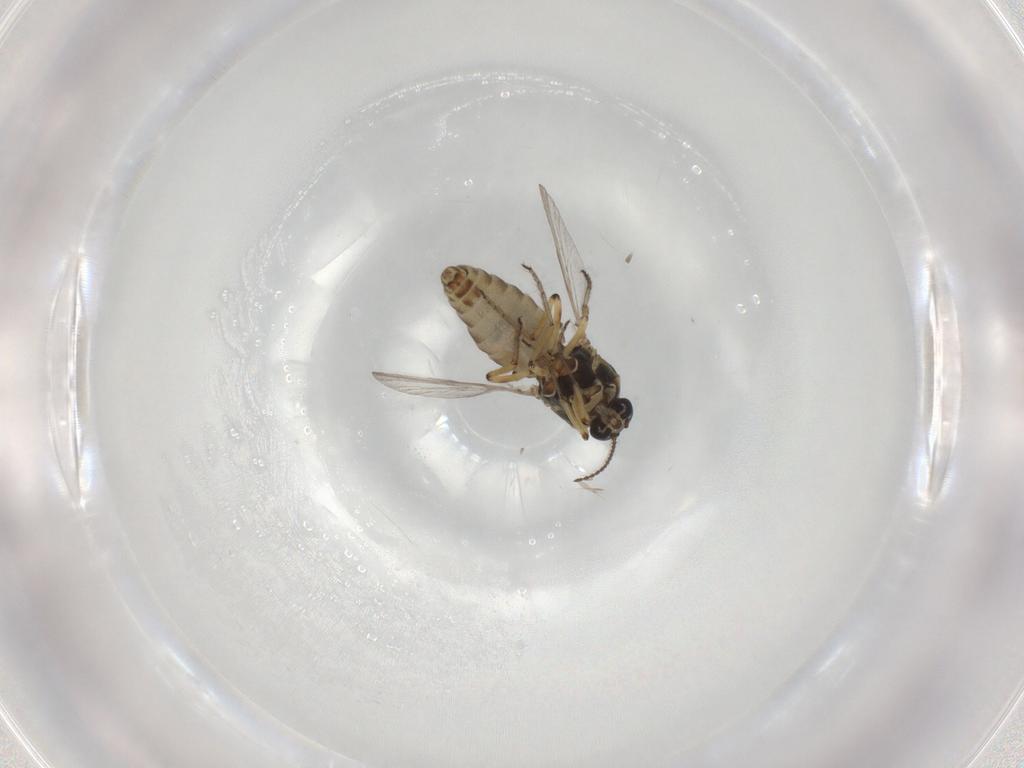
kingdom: Animalia
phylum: Arthropoda
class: Insecta
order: Diptera
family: Ceratopogonidae
